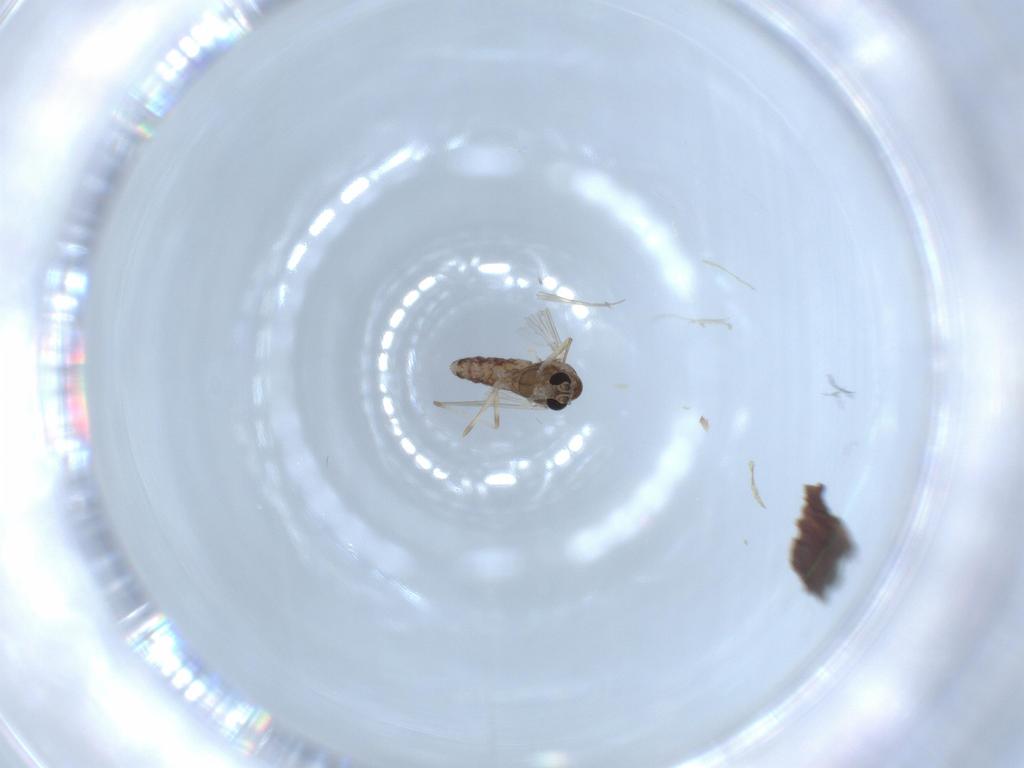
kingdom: Animalia
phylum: Arthropoda
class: Insecta
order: Diptera
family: Chironomidae
